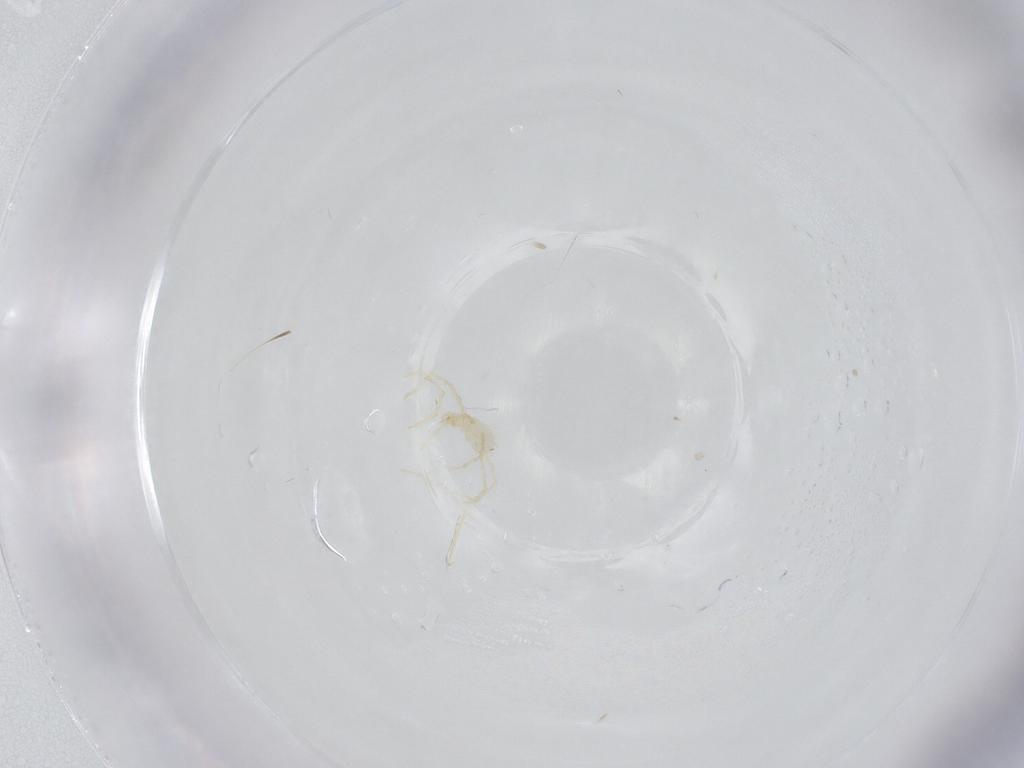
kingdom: Animalia
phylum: Arthropoda
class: Arachnida
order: Trombidiformes
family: Erythraeidae
